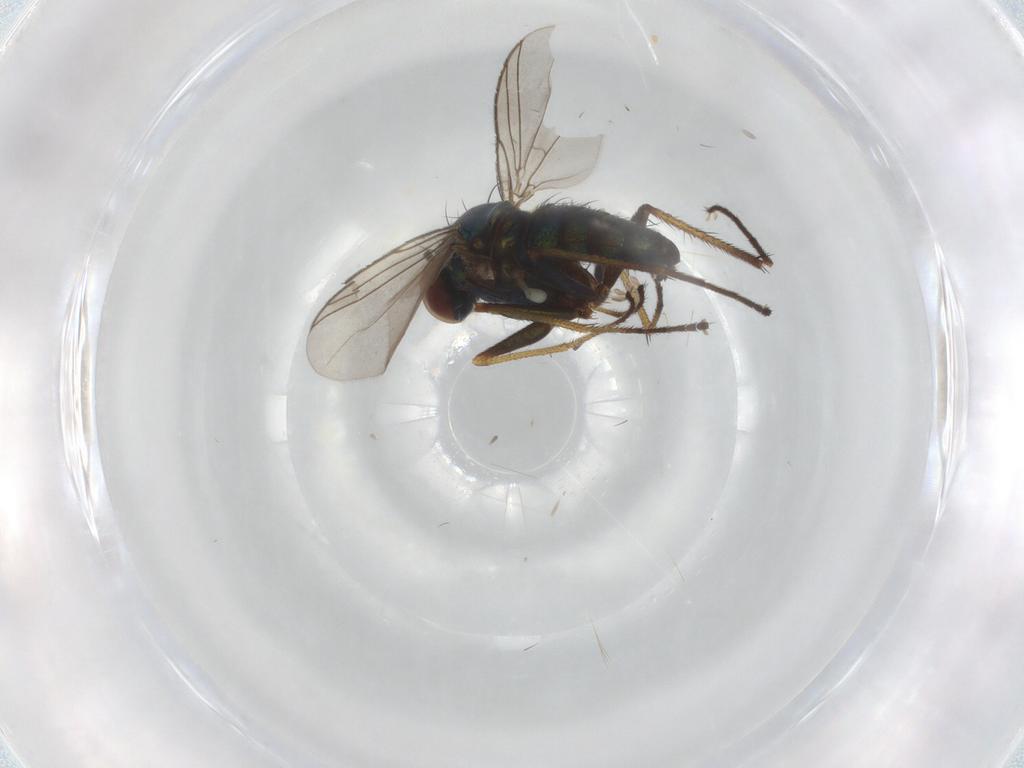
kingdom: Animalia
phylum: Arthropoda
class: Insecta
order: Diptera
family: Dolichopodidae
